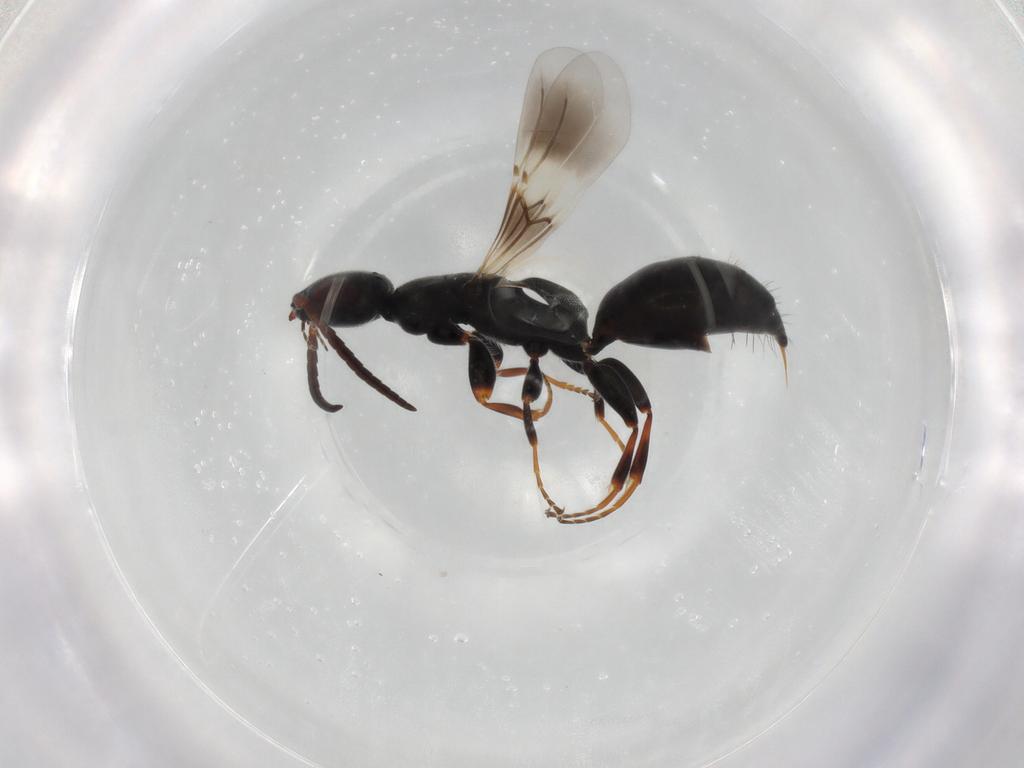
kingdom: Animalia
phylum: Arthropoda
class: Insecta
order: Hymenoptera
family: Bethylidae
